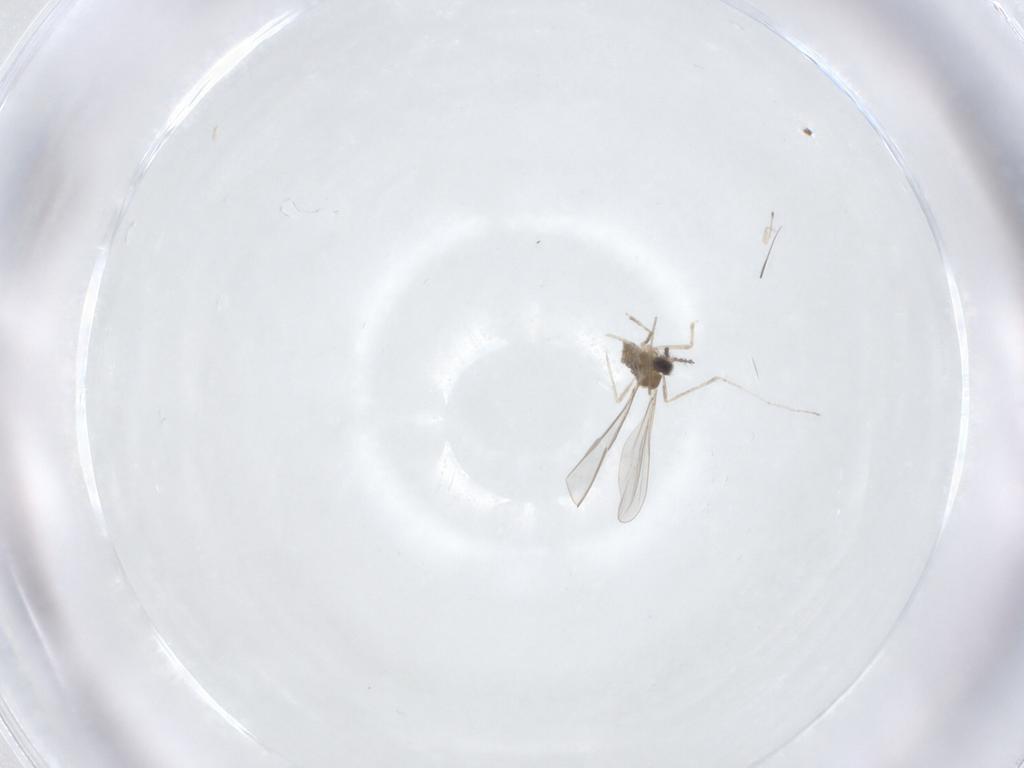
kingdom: Animalia
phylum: Arthropoda
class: Insecta
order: Diptera
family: Cecidomyiidae
